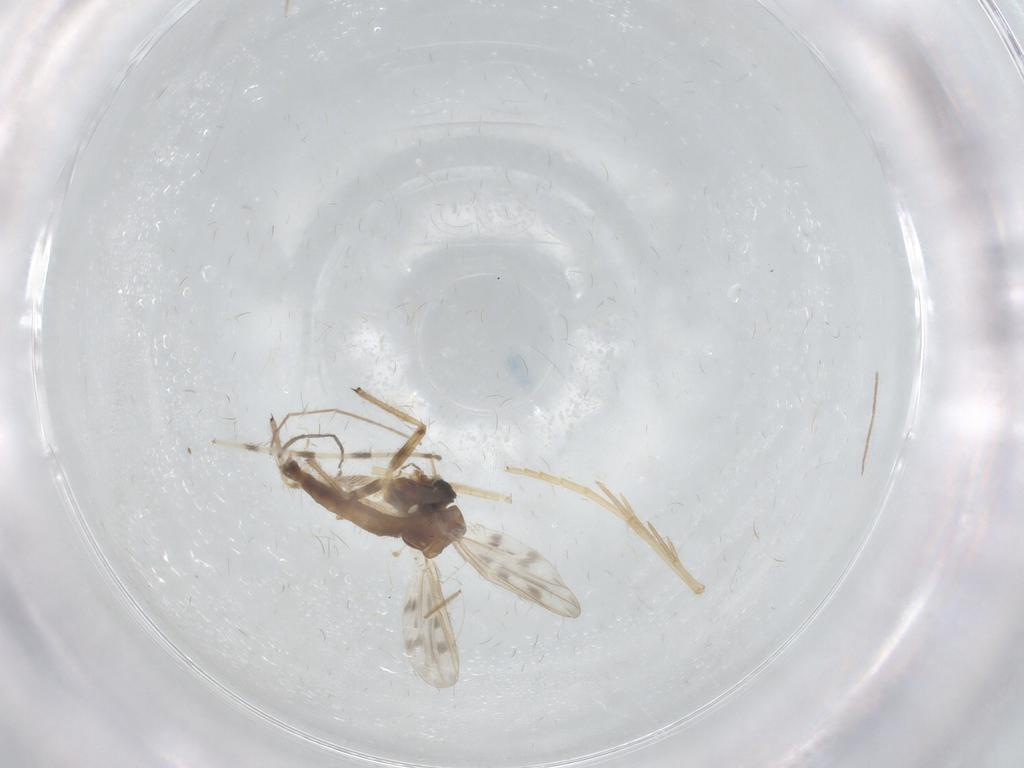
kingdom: Animalia
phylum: Arthropoda
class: Insecta
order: Diptera
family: Chironomidae
